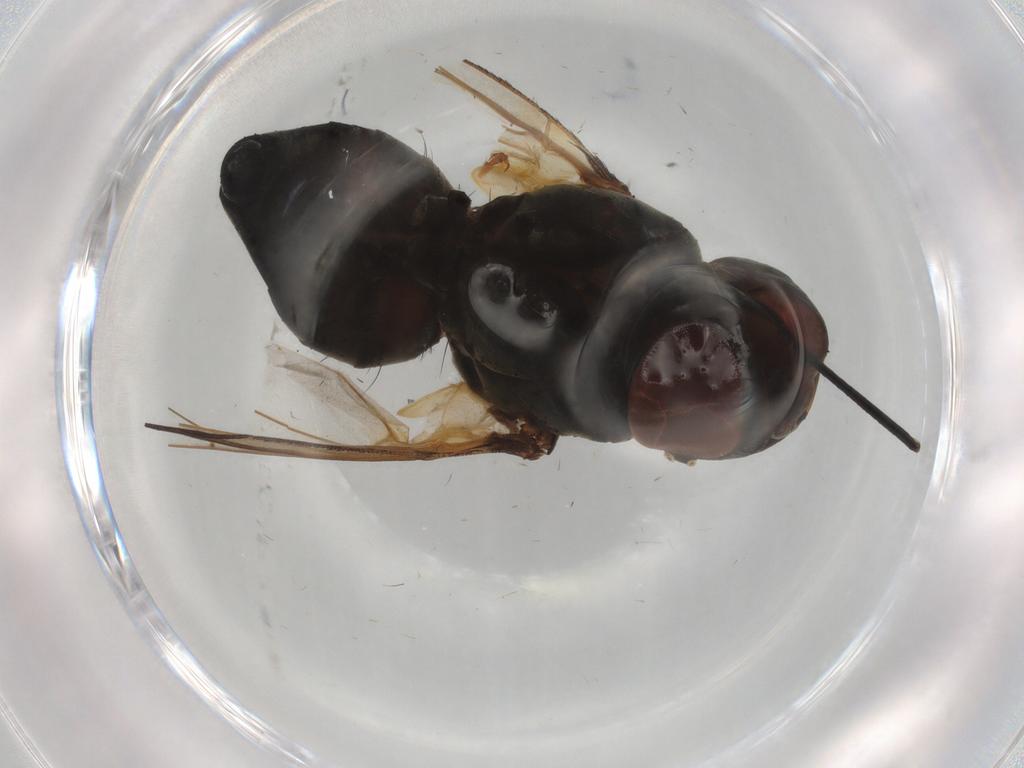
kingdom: Animalia
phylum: Arthropoda
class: Insecta
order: Diptera
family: Tachinidae
